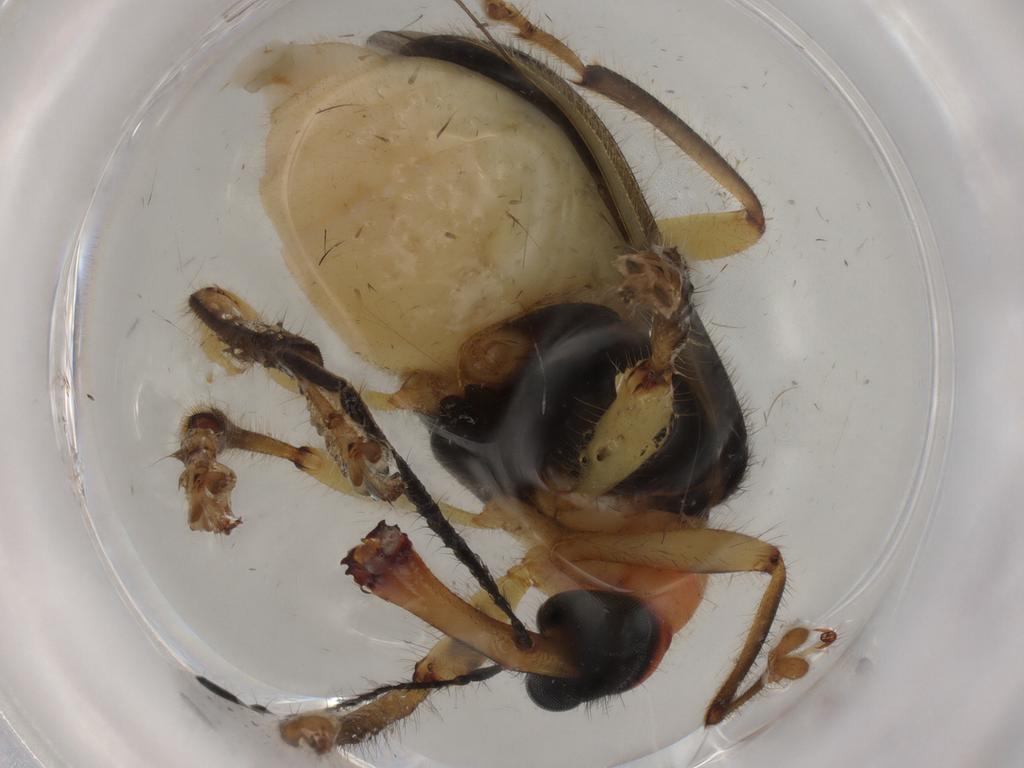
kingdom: Animalia
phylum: Arthropoda
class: Insecta
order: Coleoptera
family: Attelabidae
